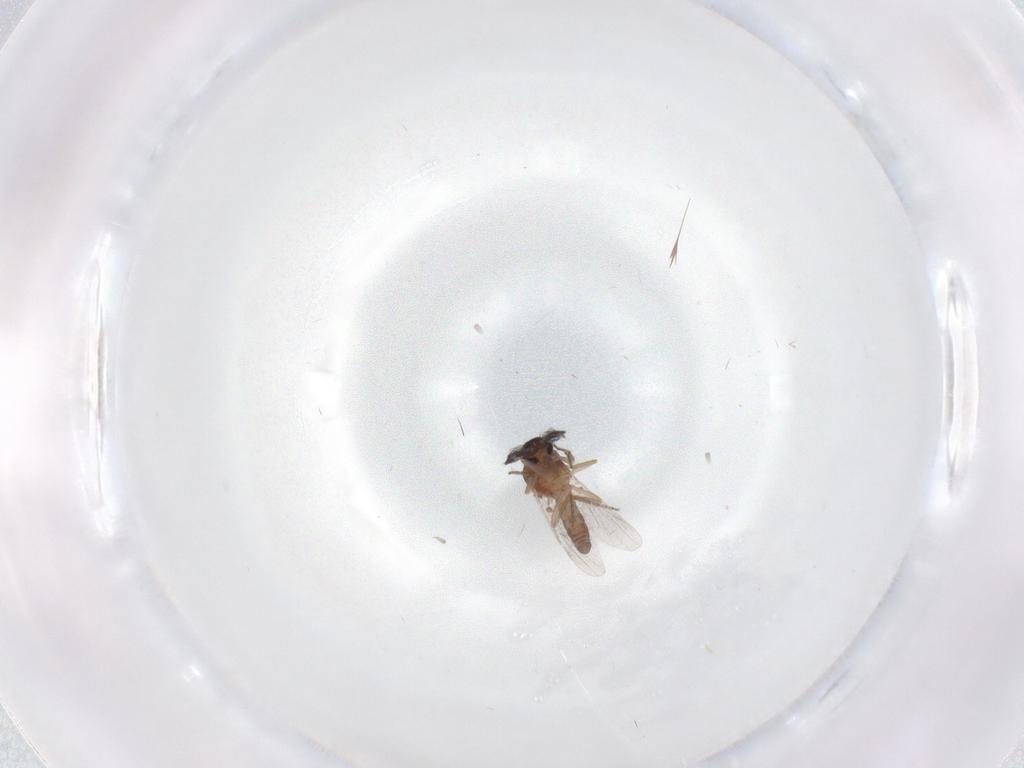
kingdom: Animalia
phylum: Arthropoda
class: Insecta
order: Diptera
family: Ceratopogonidae
